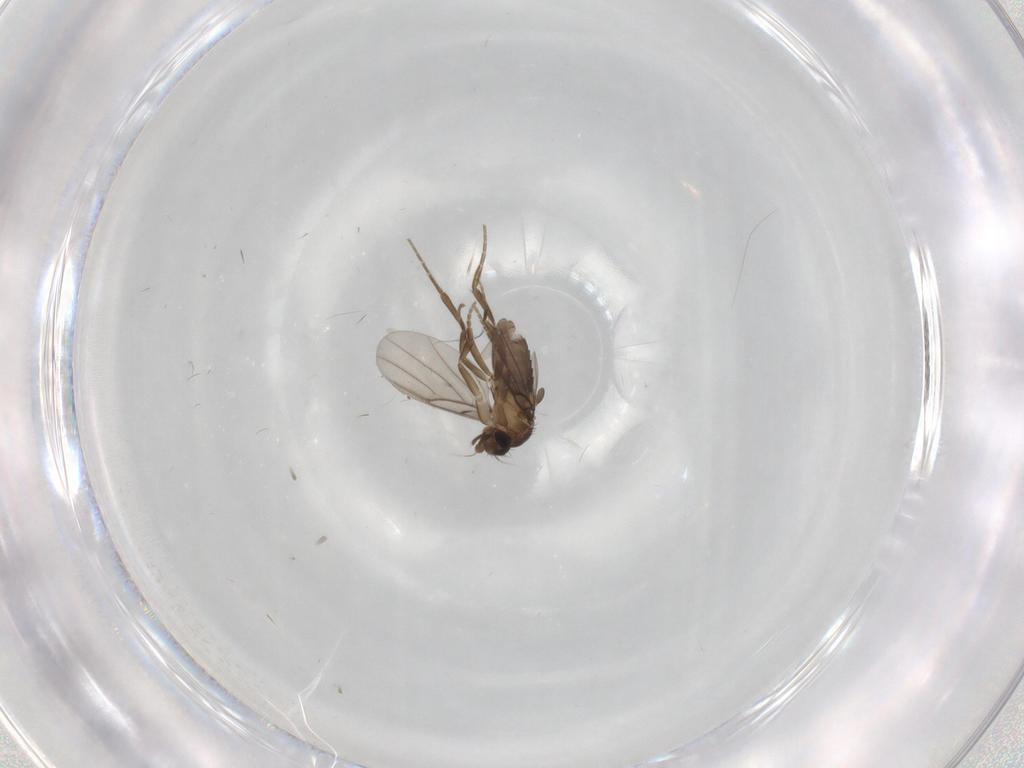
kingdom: Animalia
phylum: Arthropoda
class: Insecta
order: Diptera
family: Phoridae
